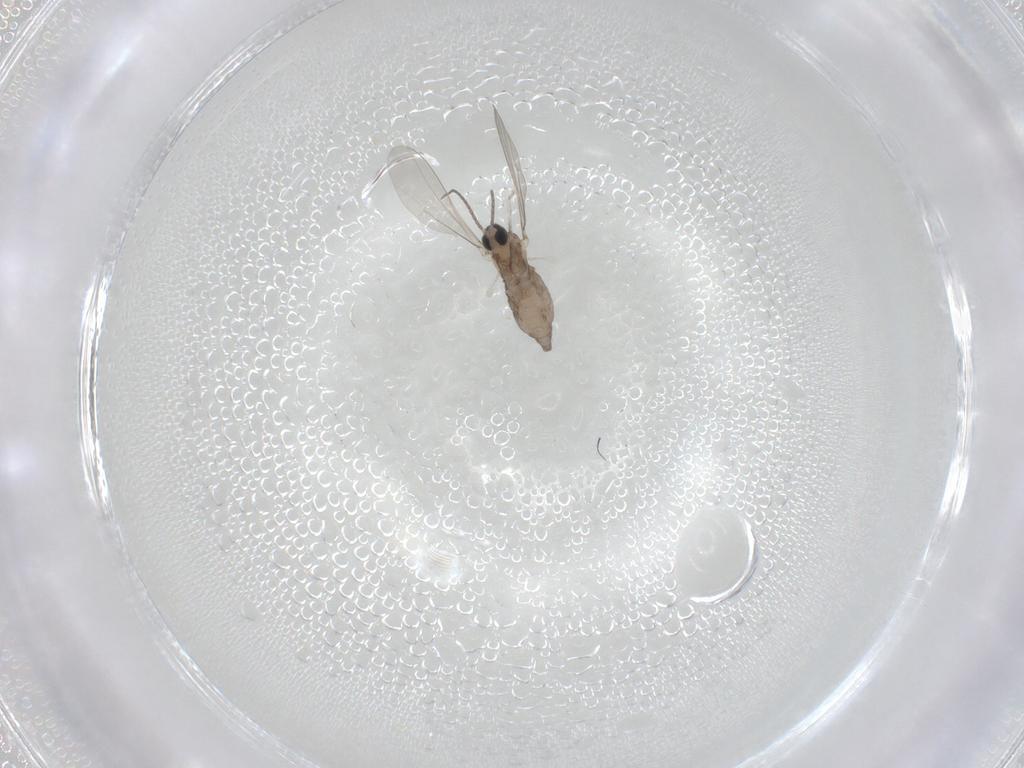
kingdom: Animalia
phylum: Arthropoda
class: Insecta
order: Diptera
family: Cecidomyiidae
